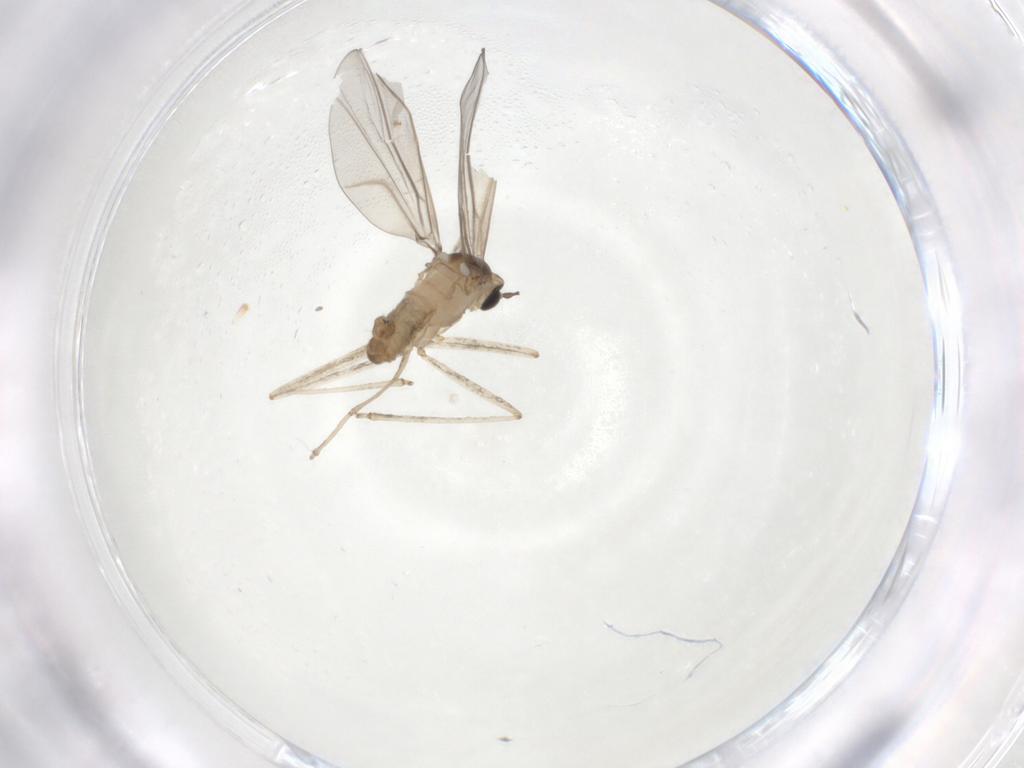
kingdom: Animalia
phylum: Arthropoda
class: Insecta
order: Diptera
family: Cecidomyiidae
